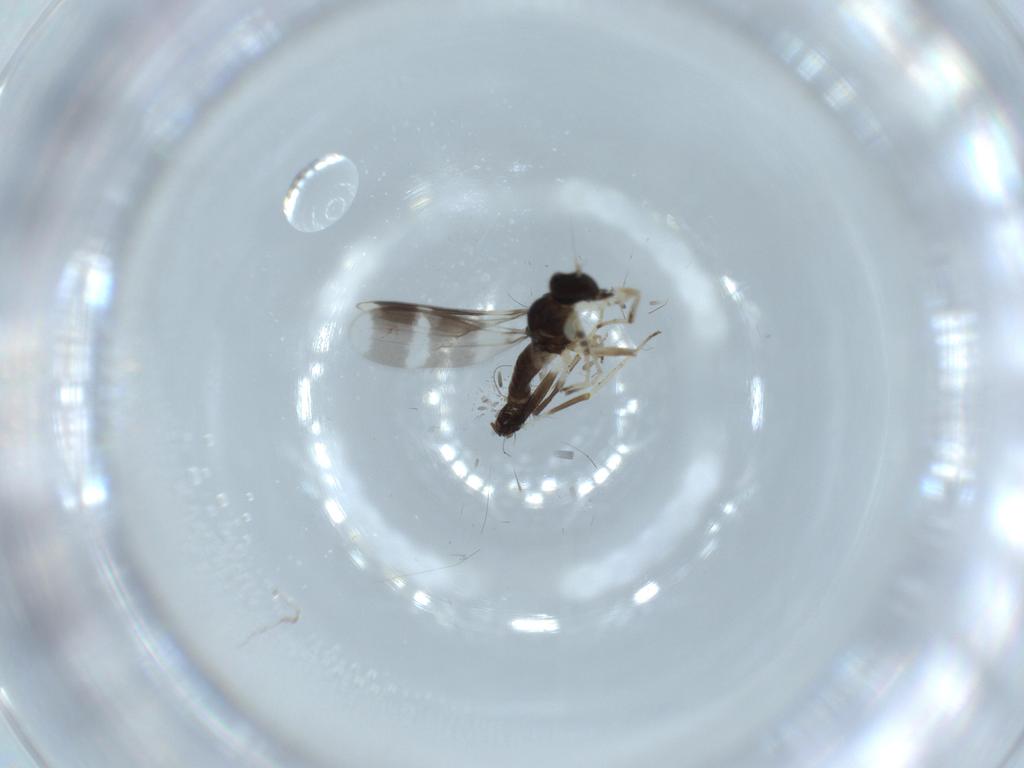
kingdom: Animalia
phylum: Arthropoda
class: Insecta
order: Diptera
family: Hybotidae
